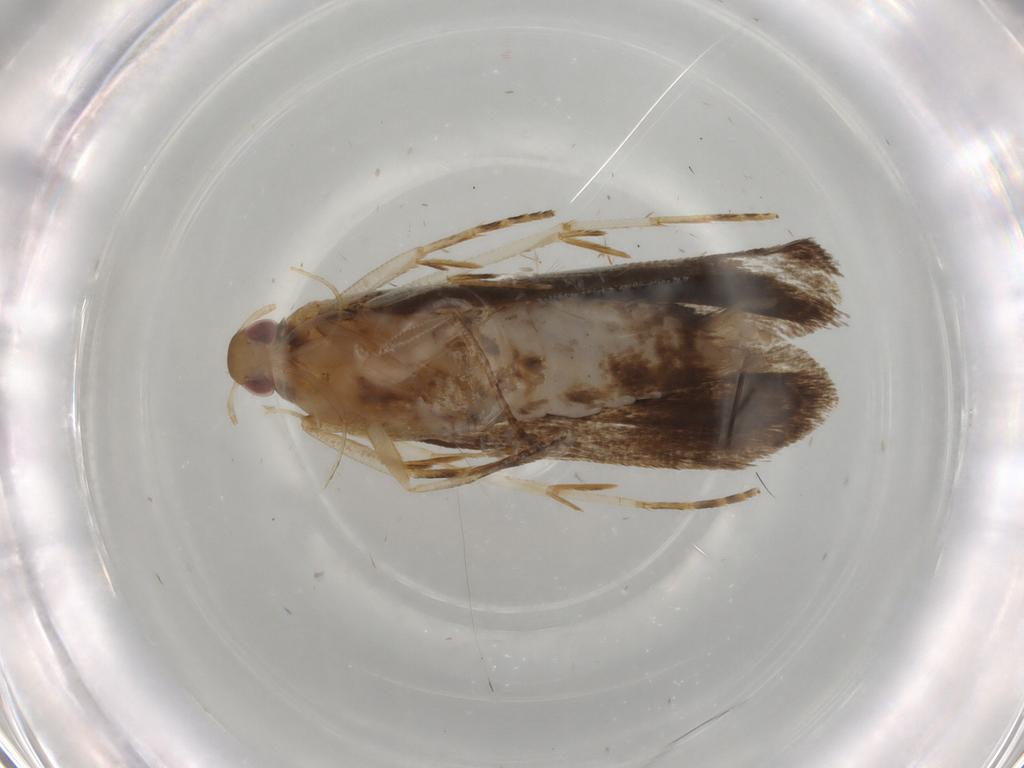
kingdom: Animalia
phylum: Arthropoda
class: Insecta
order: Lepidoptera
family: Gelechiidae
